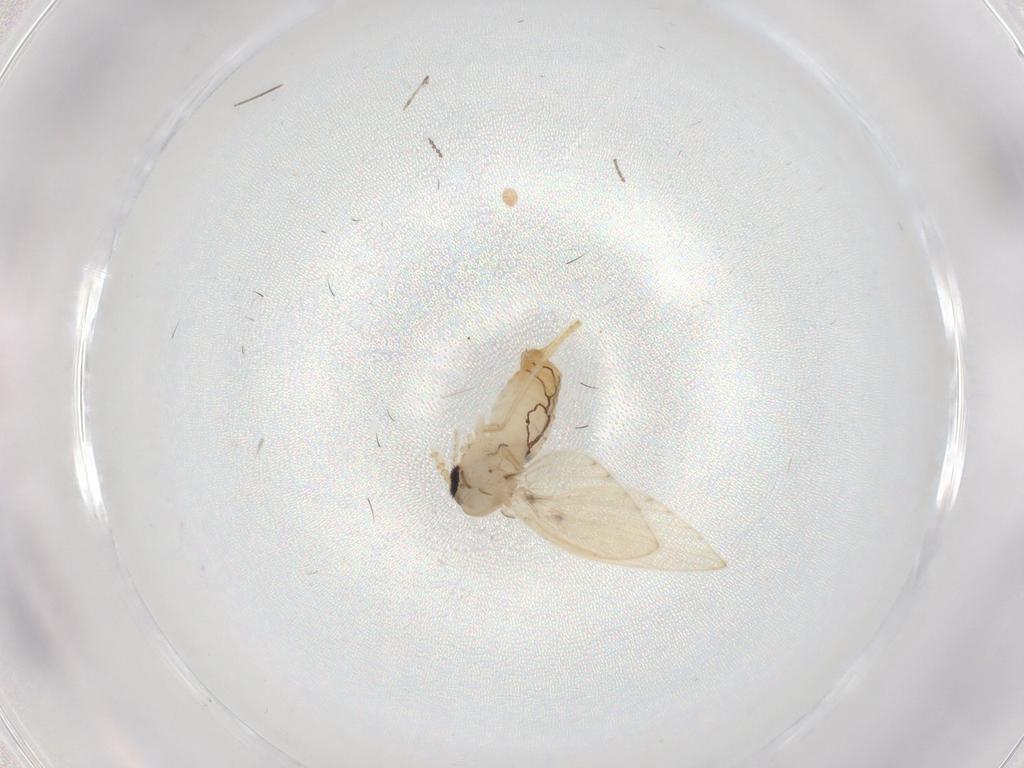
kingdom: Animalia
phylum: Arthropoda
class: Insecta
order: Diptera
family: Psychodidae
